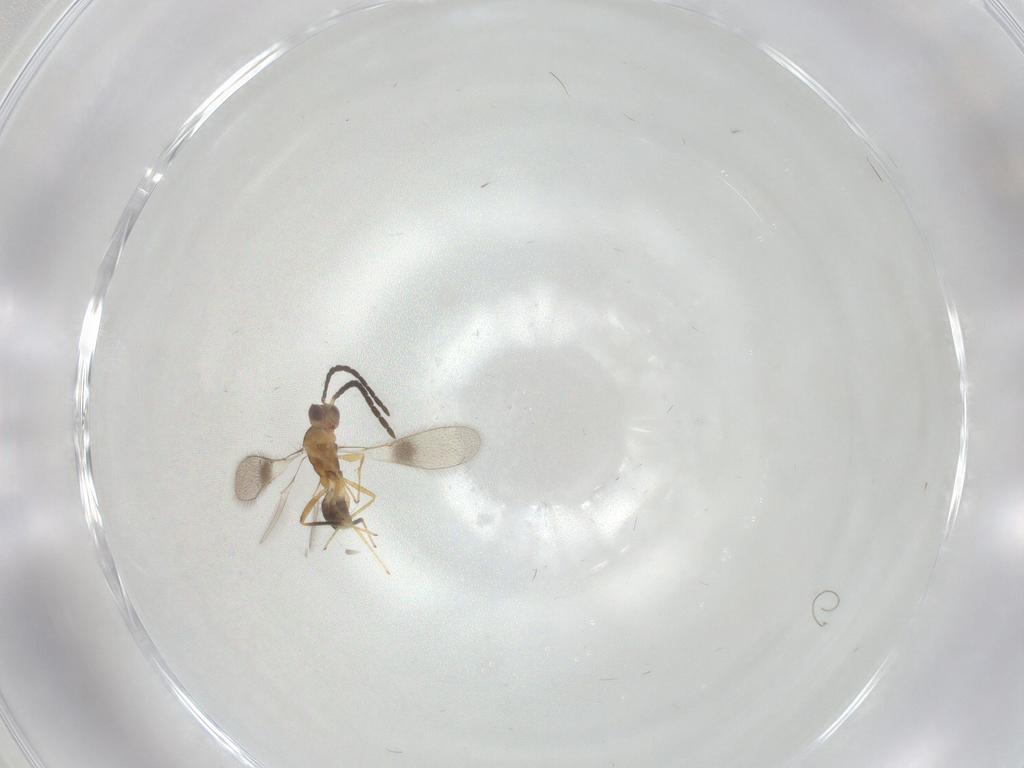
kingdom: Animalia
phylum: Arthropoda
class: Insecta
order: Hymenoptera
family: Mymaridae
